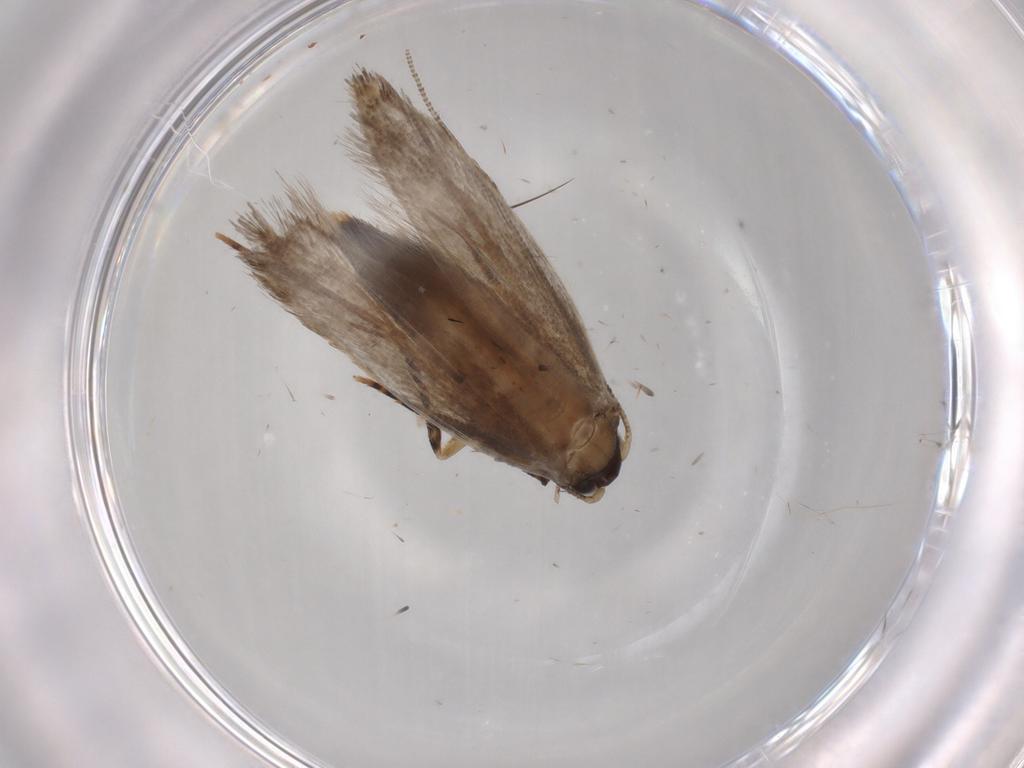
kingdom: Animalia
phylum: Arthropoda
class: Insecta
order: Lepidoptera
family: Tineidae
